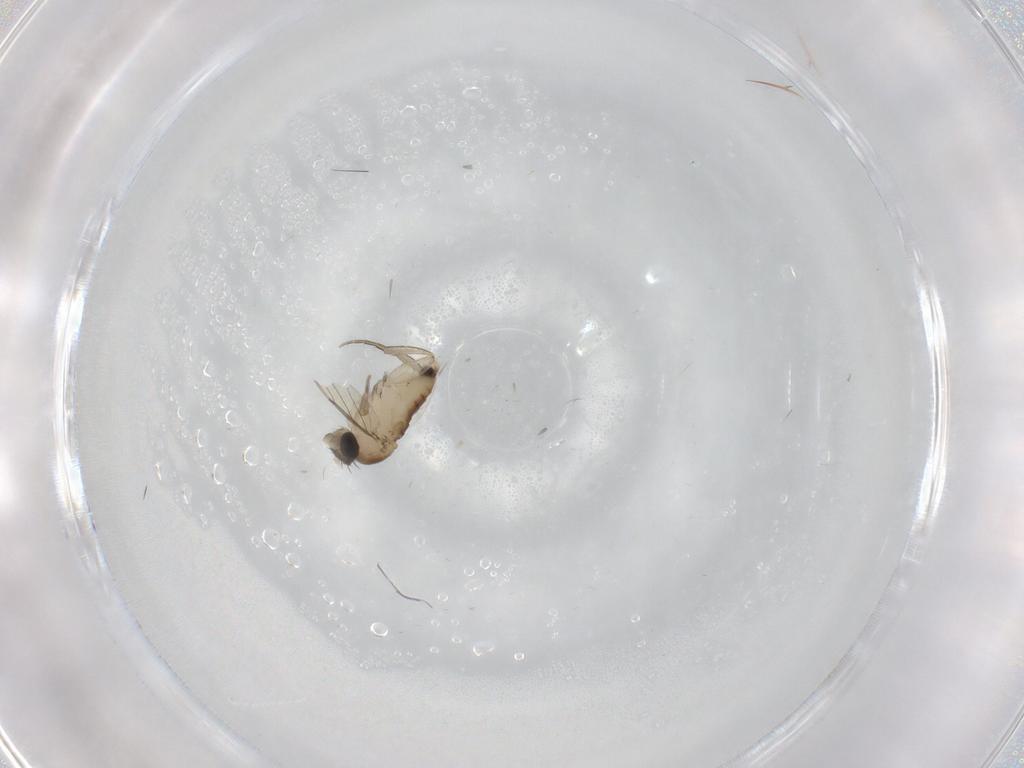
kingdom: Animalia
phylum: Arthropoda
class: Insecta
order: Diptera
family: Phoridae
